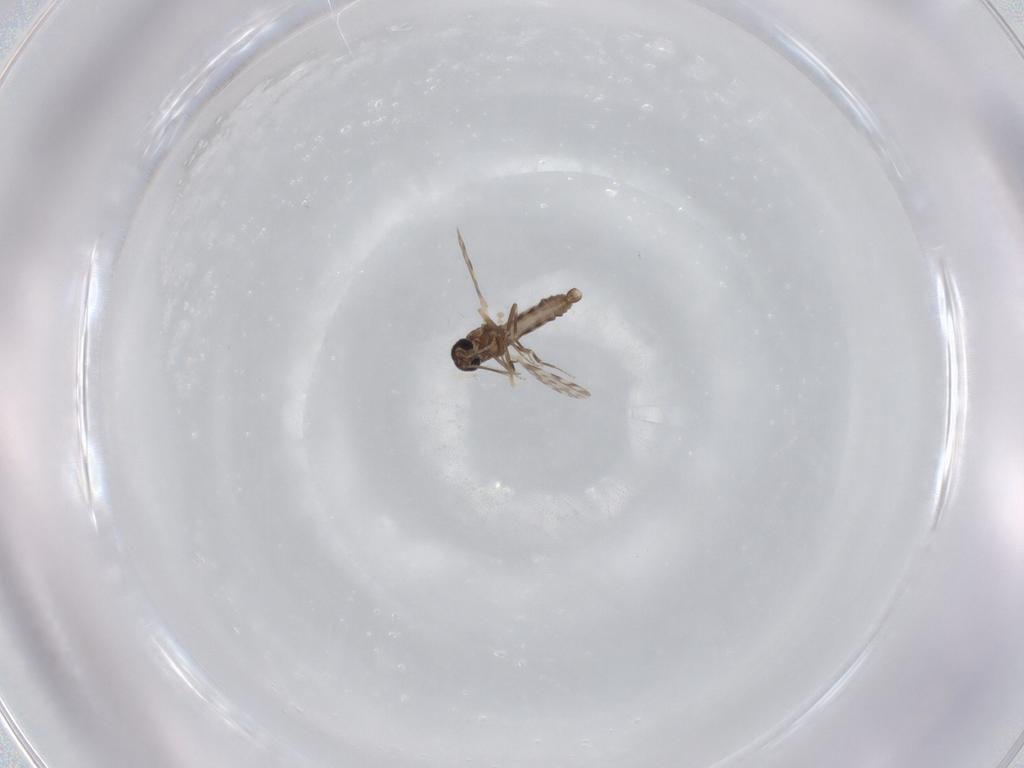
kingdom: Animalia
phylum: Arthropoda
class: Insecta
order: Diptera
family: Ceratopogonidae
